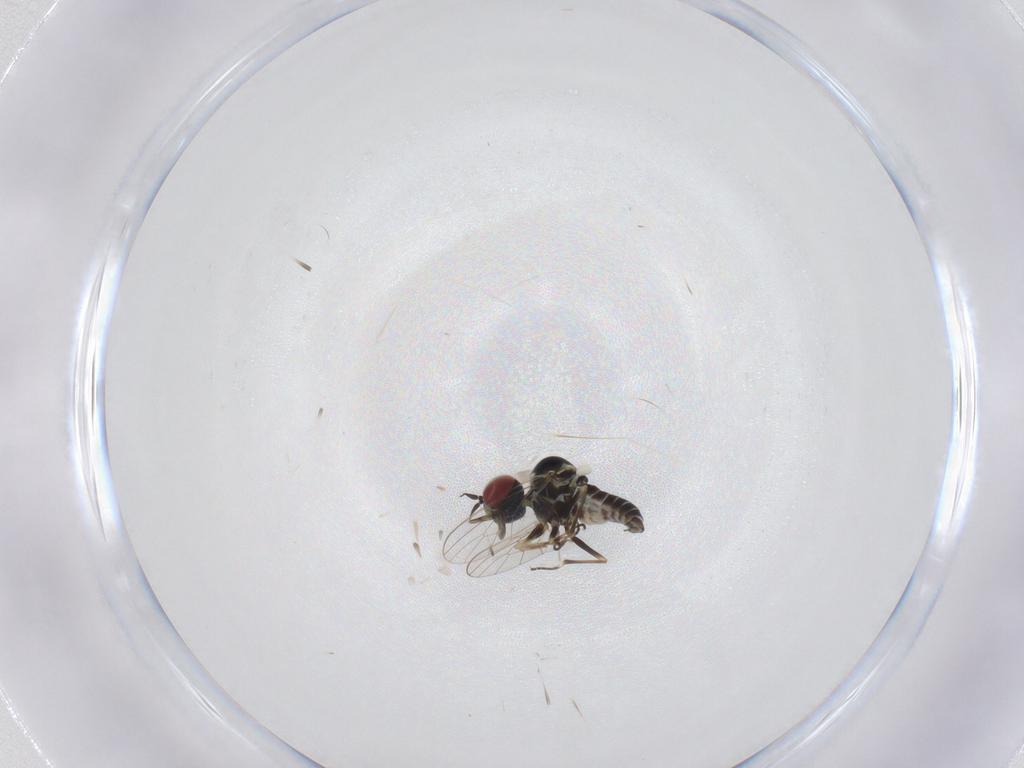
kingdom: Animalia
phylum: Arthropoda
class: Insecta
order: Diptera
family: Mythicomyiidae
